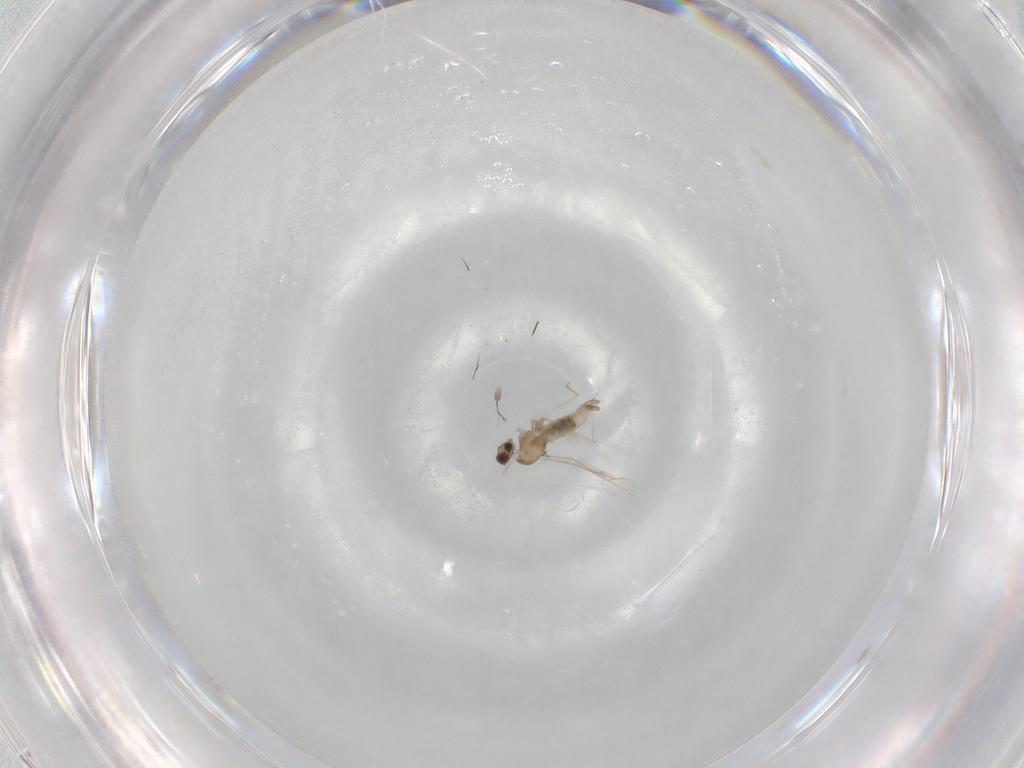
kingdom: Animalia
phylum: Arthropoda
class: Insecta
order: Diptera
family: Cecidomyiidae
